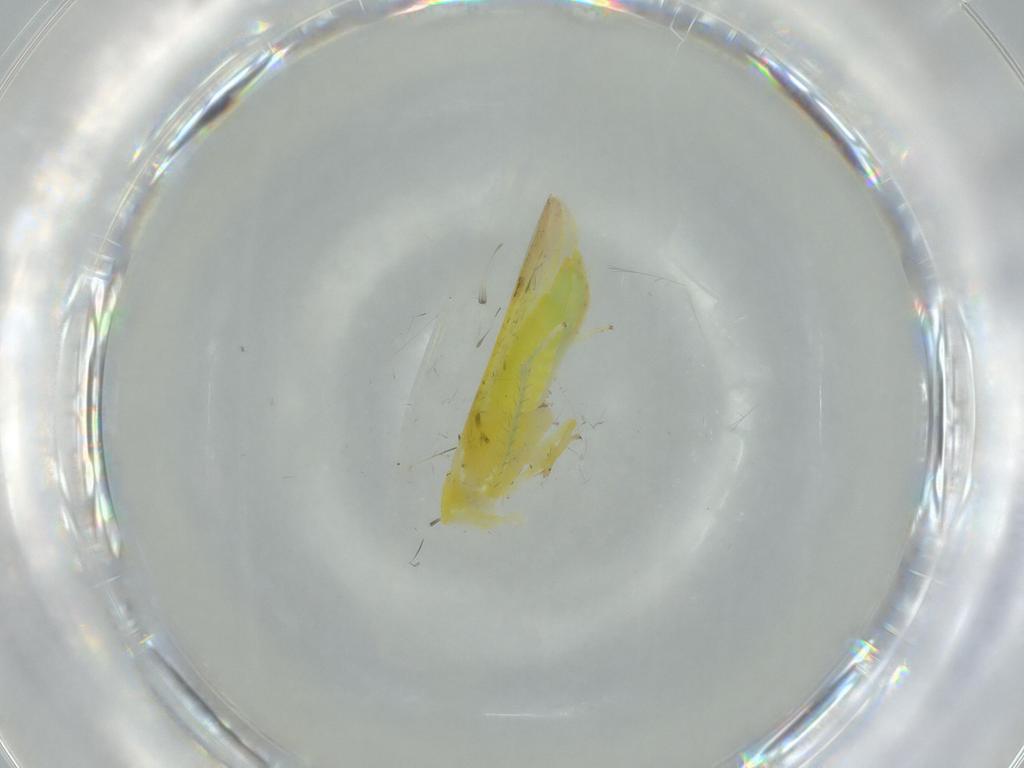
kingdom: Animalia
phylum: Arthropoda
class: Insecta
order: Hemiptera
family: Cicadellidae
